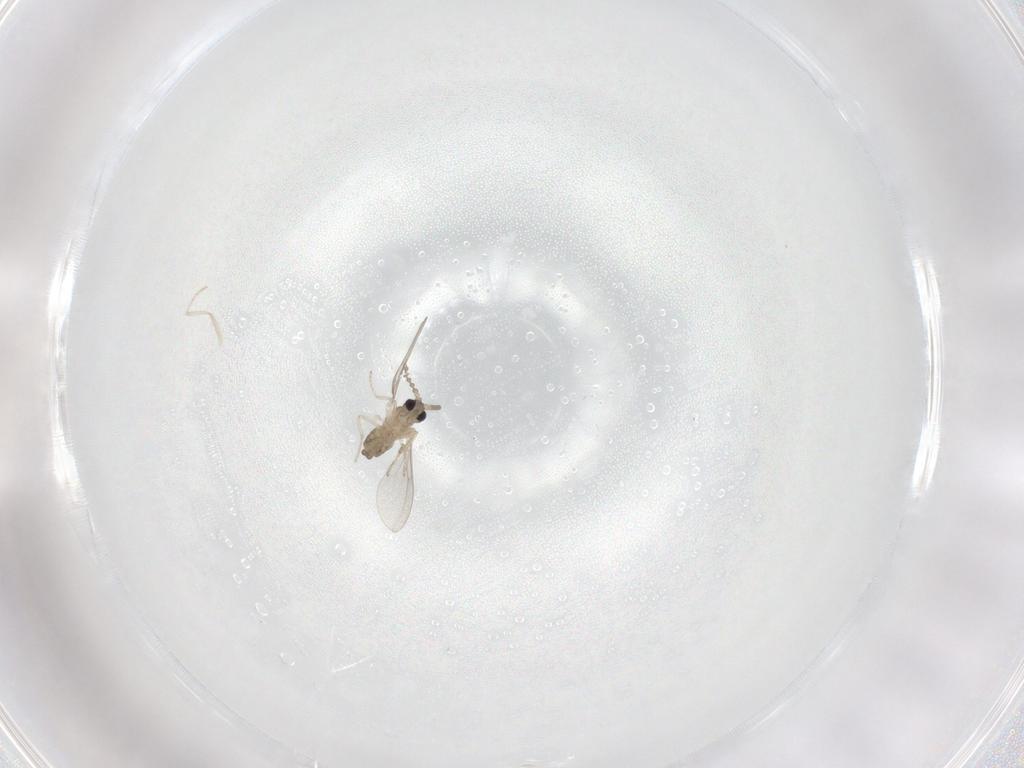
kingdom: Animalia
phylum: Arthropoda
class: Insecta
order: Diptera
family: Cecidomyiidae
